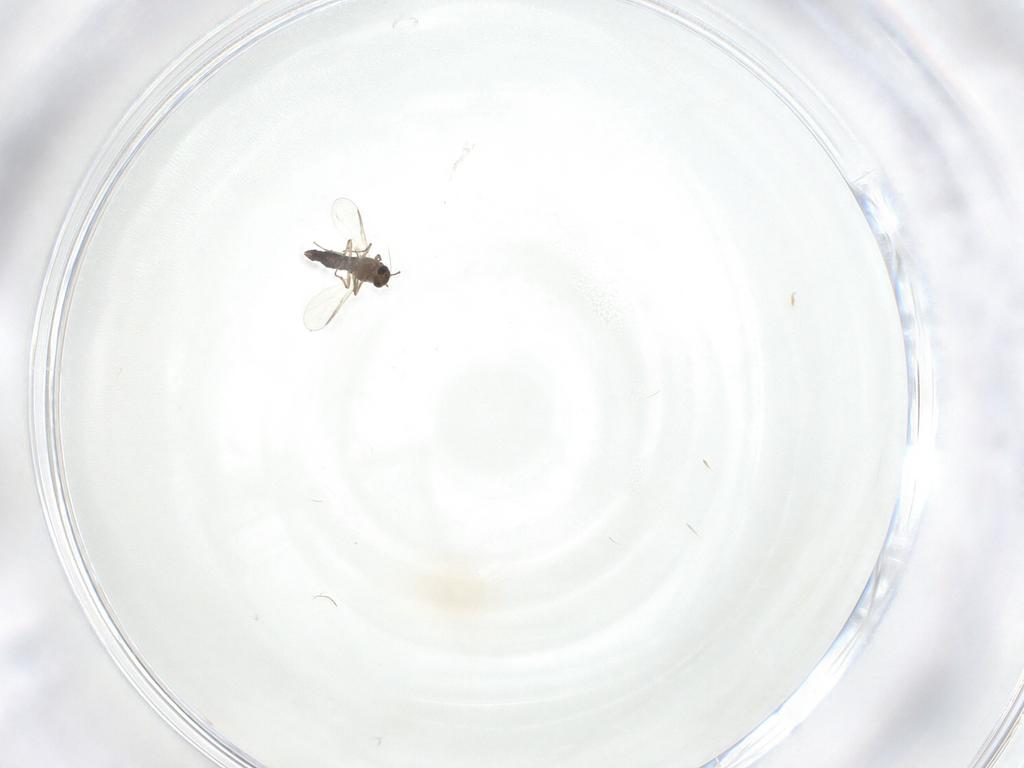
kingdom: Animalia
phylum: Arthropoda
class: Insecta
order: Diptera
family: Chironomidae
